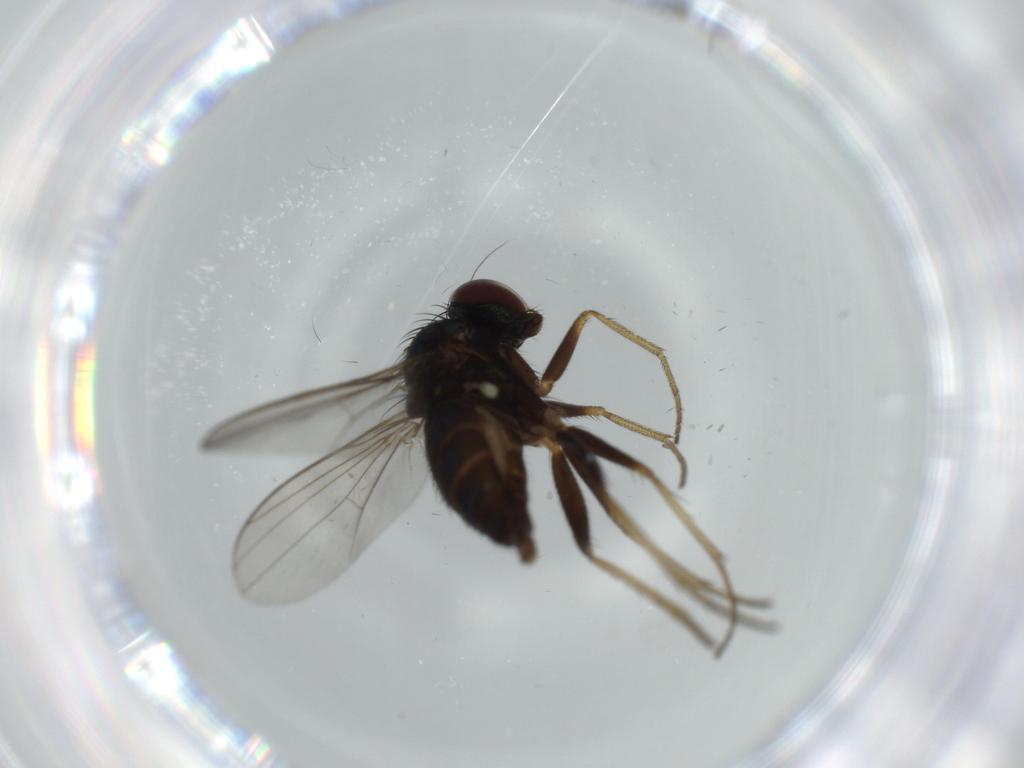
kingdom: Animalia
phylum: Arthropoda
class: Insecta
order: Diptera
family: Dolichopodidae
